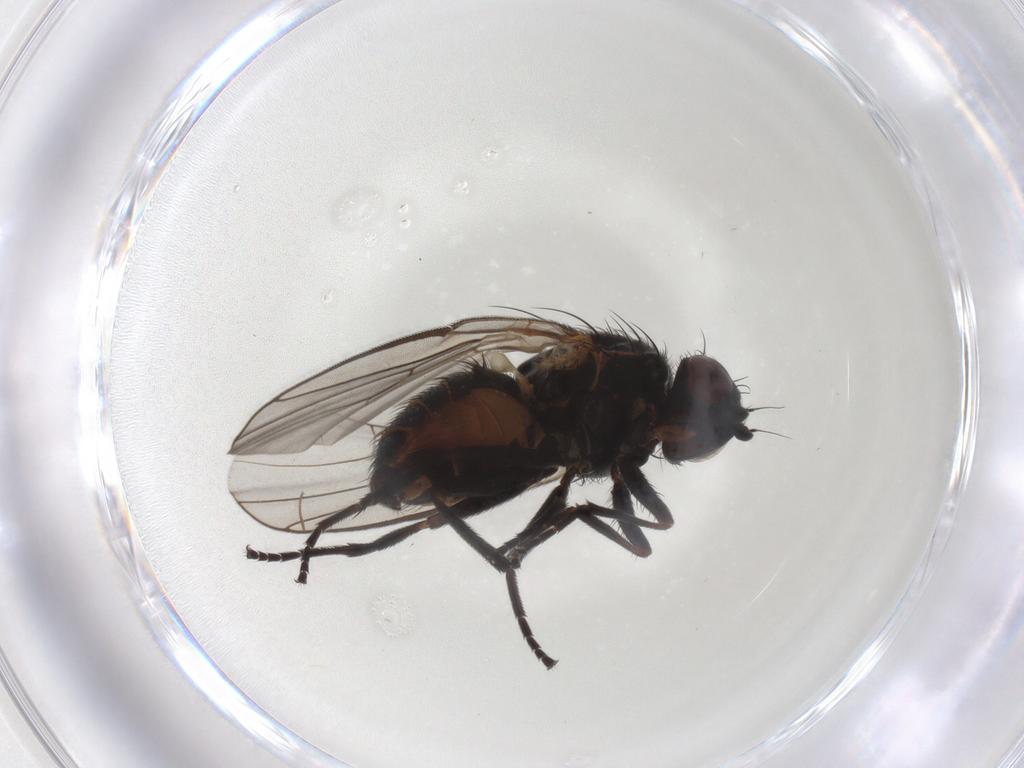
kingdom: Animalia
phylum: Arthropoda
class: Insecta
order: Diptera
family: Agromyzidae
